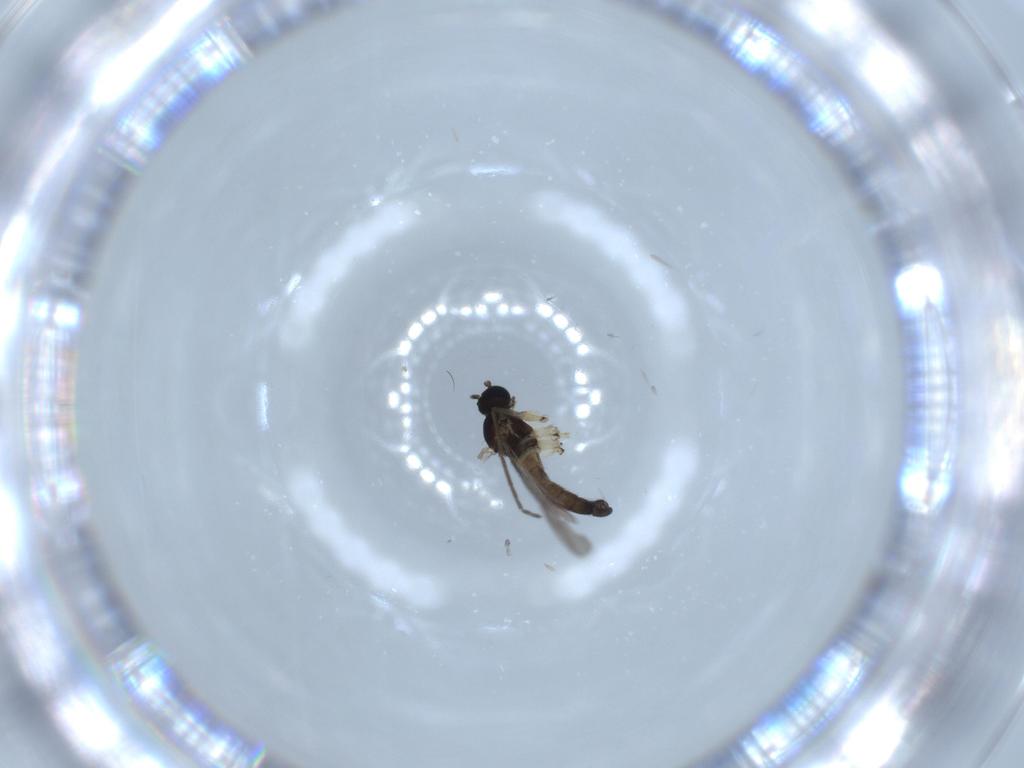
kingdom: Animalia
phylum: Arthropoda
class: Insecta
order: Diptera
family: Sciaridae
